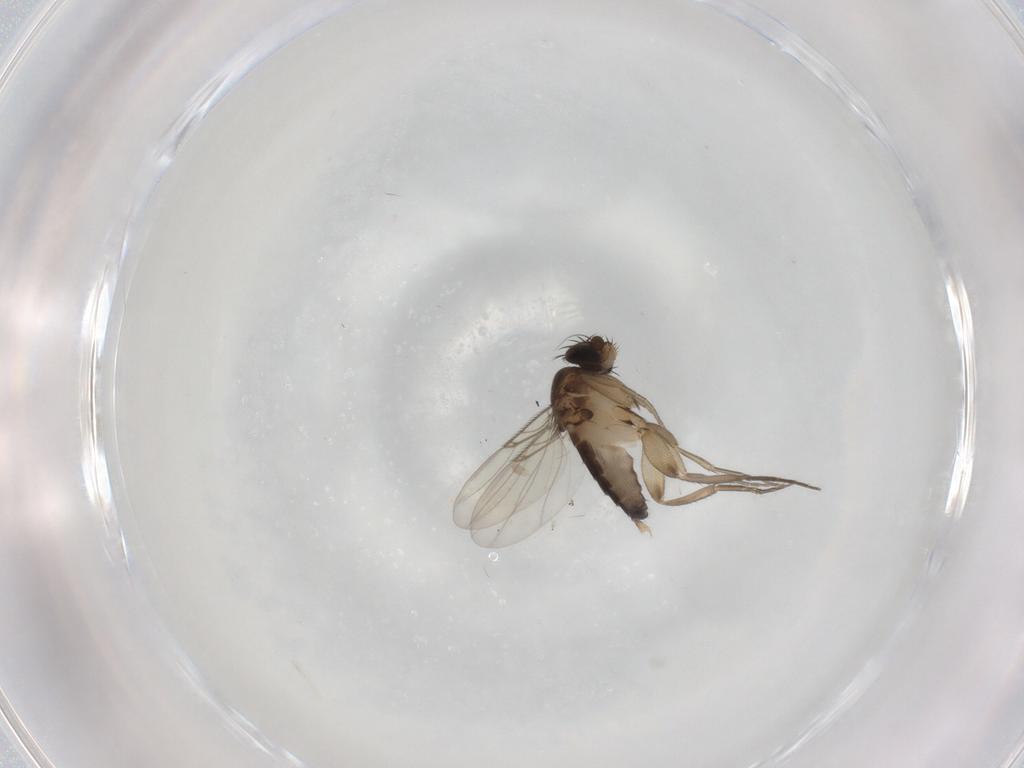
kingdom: Animalia
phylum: Arthropoda
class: Insecta
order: Diptera
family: Phoridae
